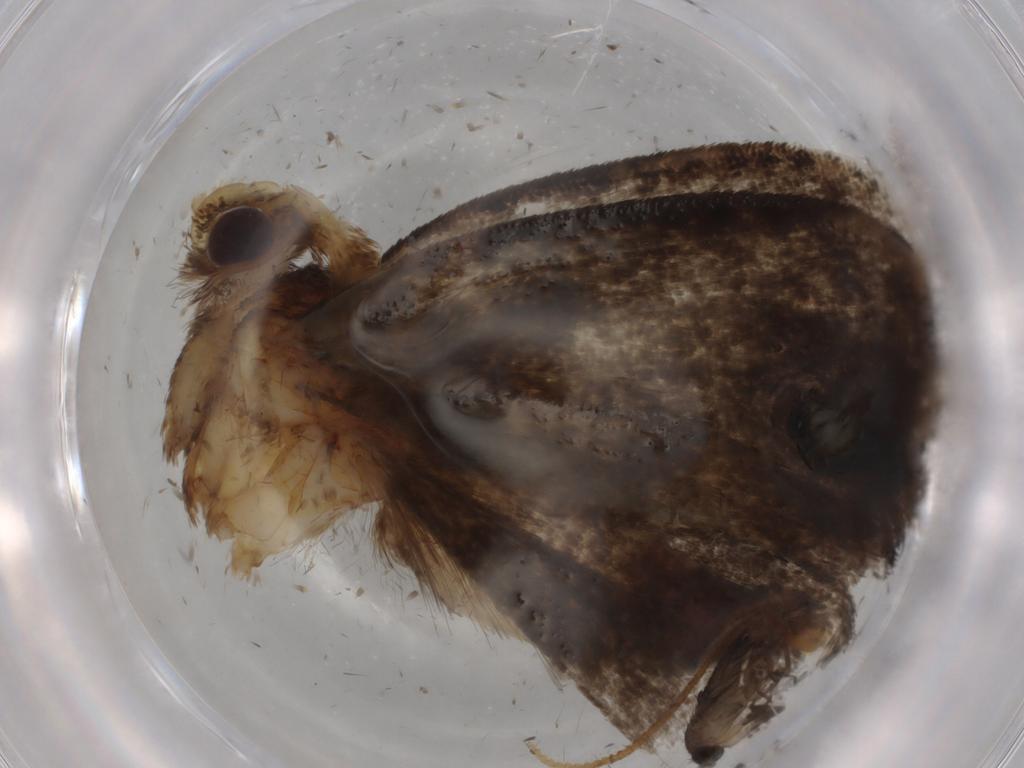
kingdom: Animalia
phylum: Arthropoda
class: Insecta
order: Lepidoptera
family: Tineidae
